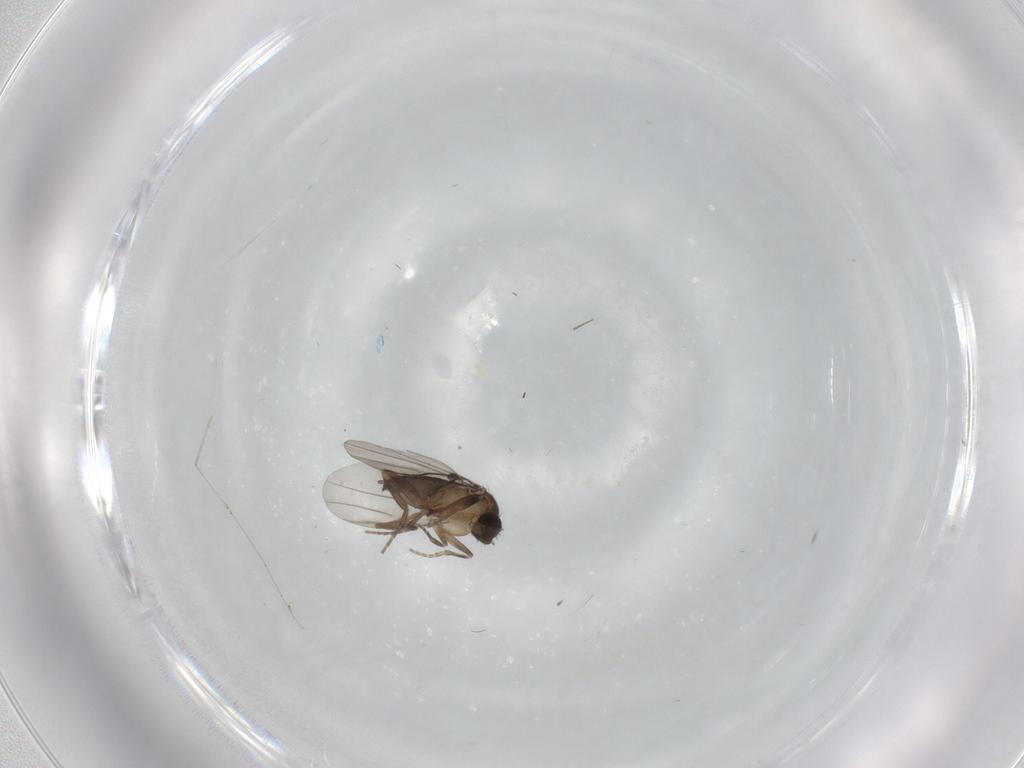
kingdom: Animalia
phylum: Arthropoda
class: Insecta
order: Diptera
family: Cecidomyiidae
